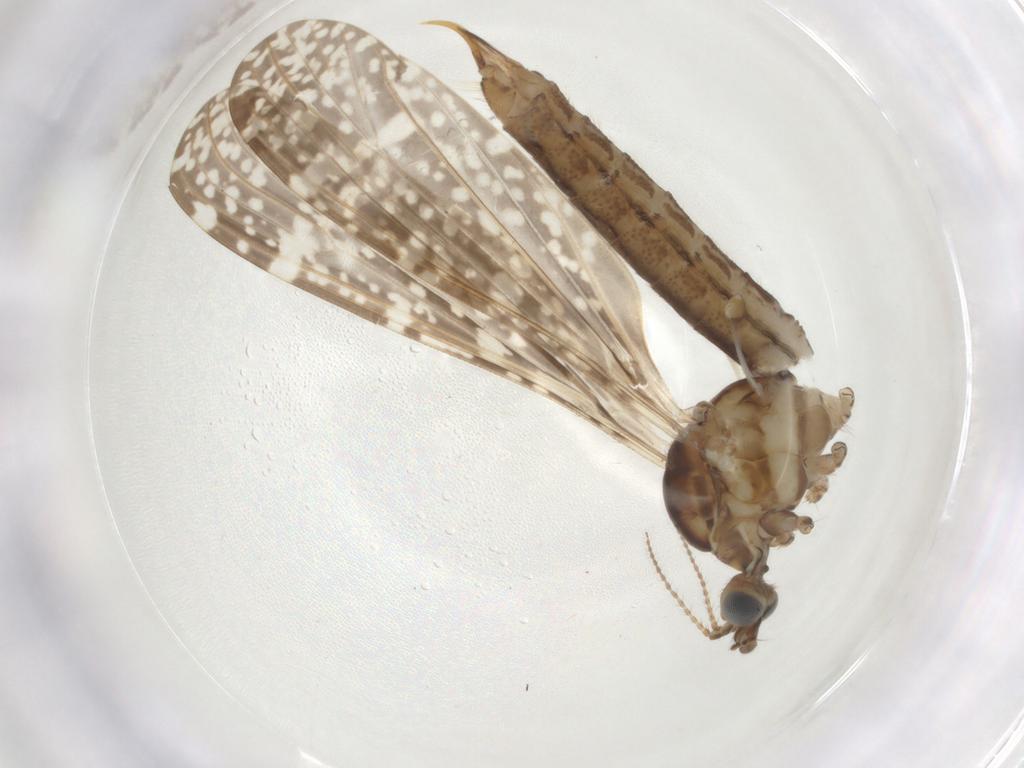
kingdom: Animalia
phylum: Arthropoda
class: Insecta
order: Diptera
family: Limoniidae
